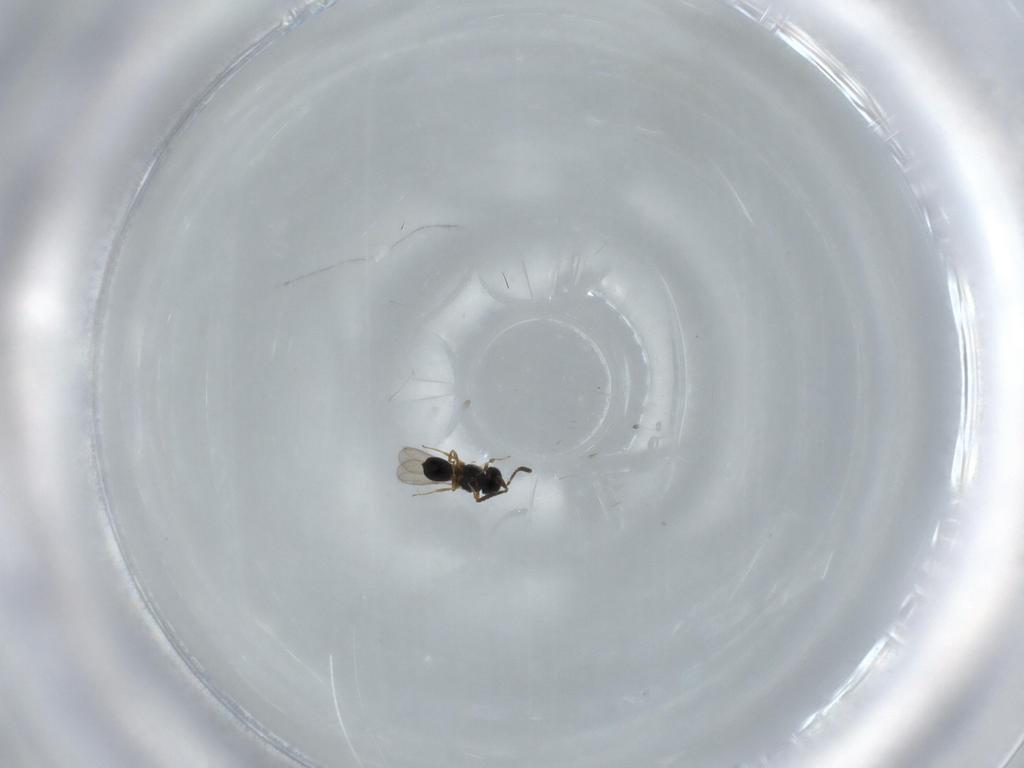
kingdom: Animalia
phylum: Arthropoda
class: Insecta
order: Hymenoptera
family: Scelionidae
